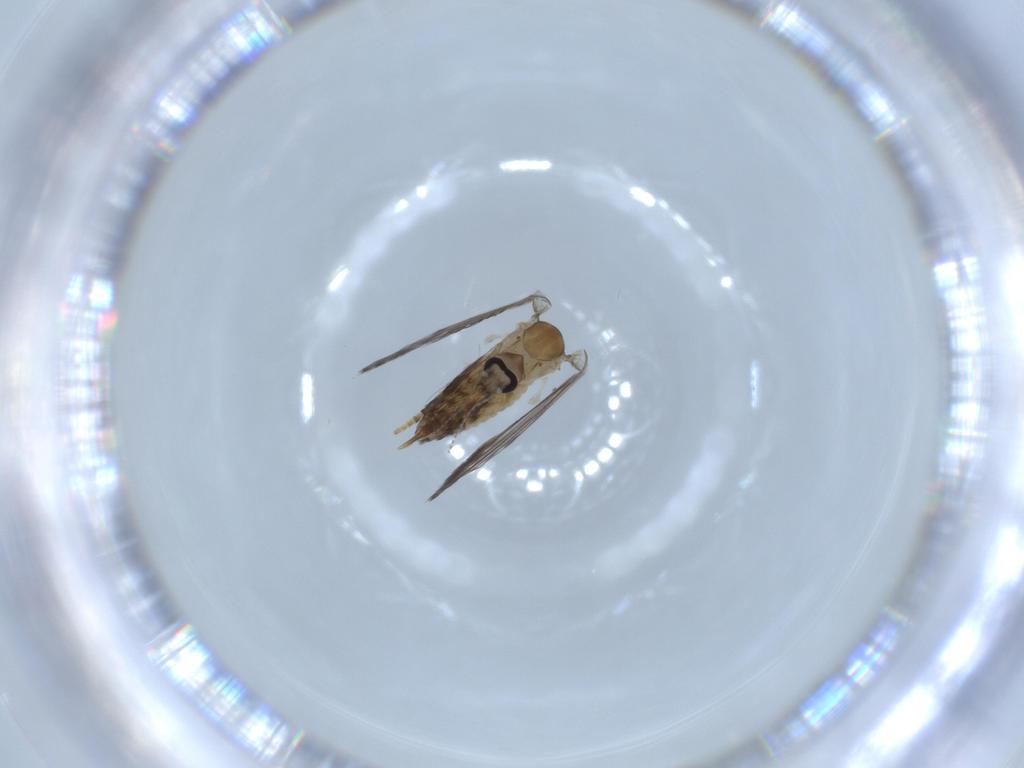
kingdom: Animalia
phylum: Arthropoda
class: Insecta
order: Diptera
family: Psychodidae
